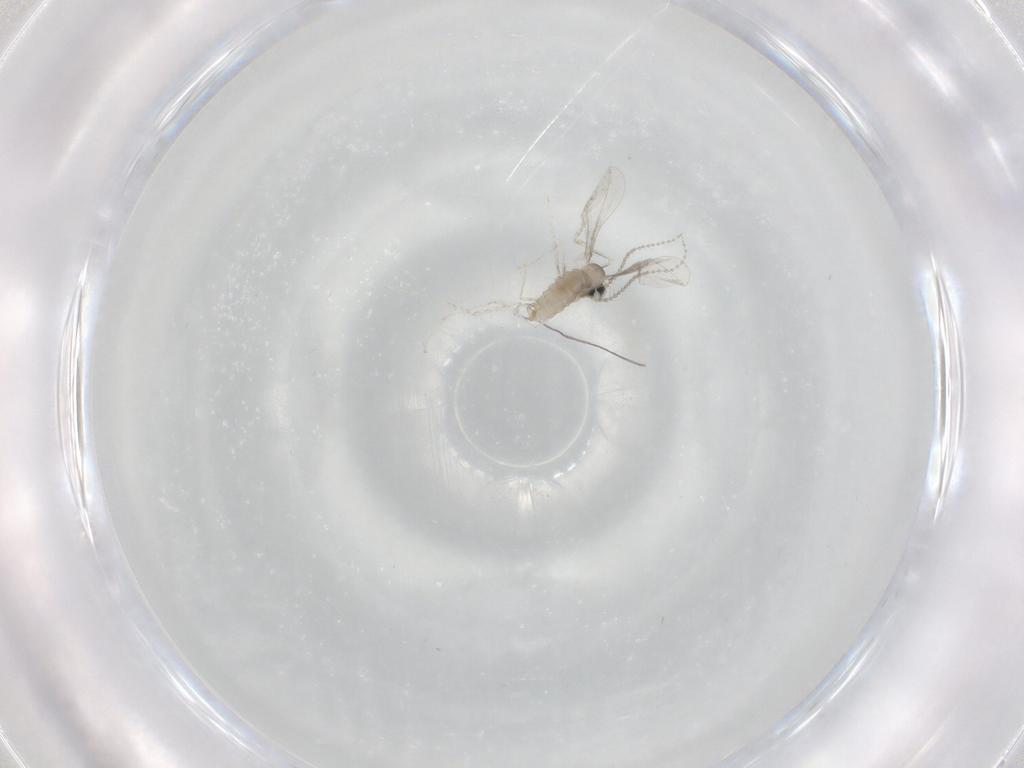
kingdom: Animalia
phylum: Arthropoda
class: Insecta
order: Diptera
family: Cecidomyiidae
